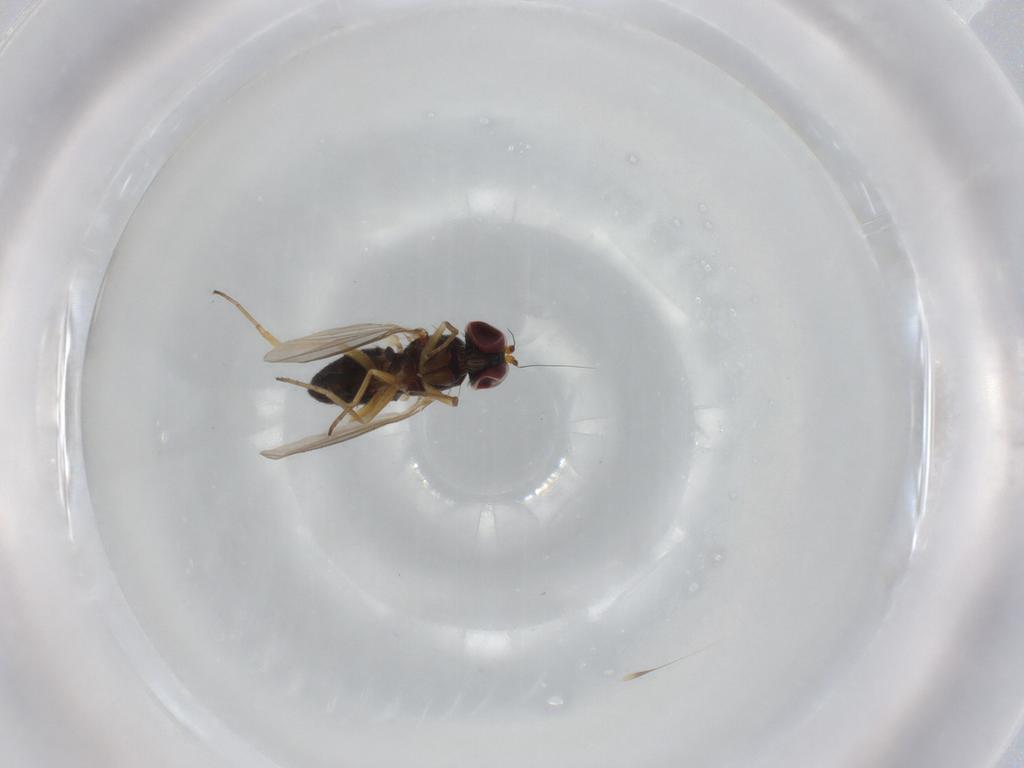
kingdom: Animalia
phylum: Arthropoda
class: Insecta
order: Diptera
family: Dolichopodidae
